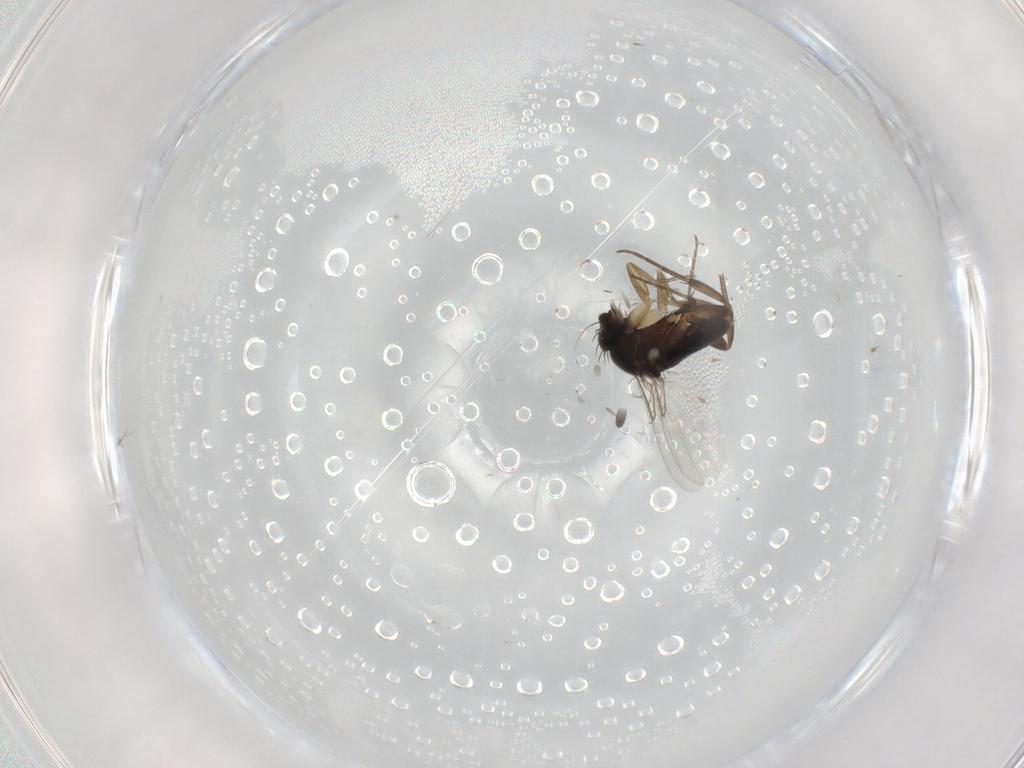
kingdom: Animalia
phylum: Arthropoda
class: Insecta
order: Diptera
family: Phoridae
